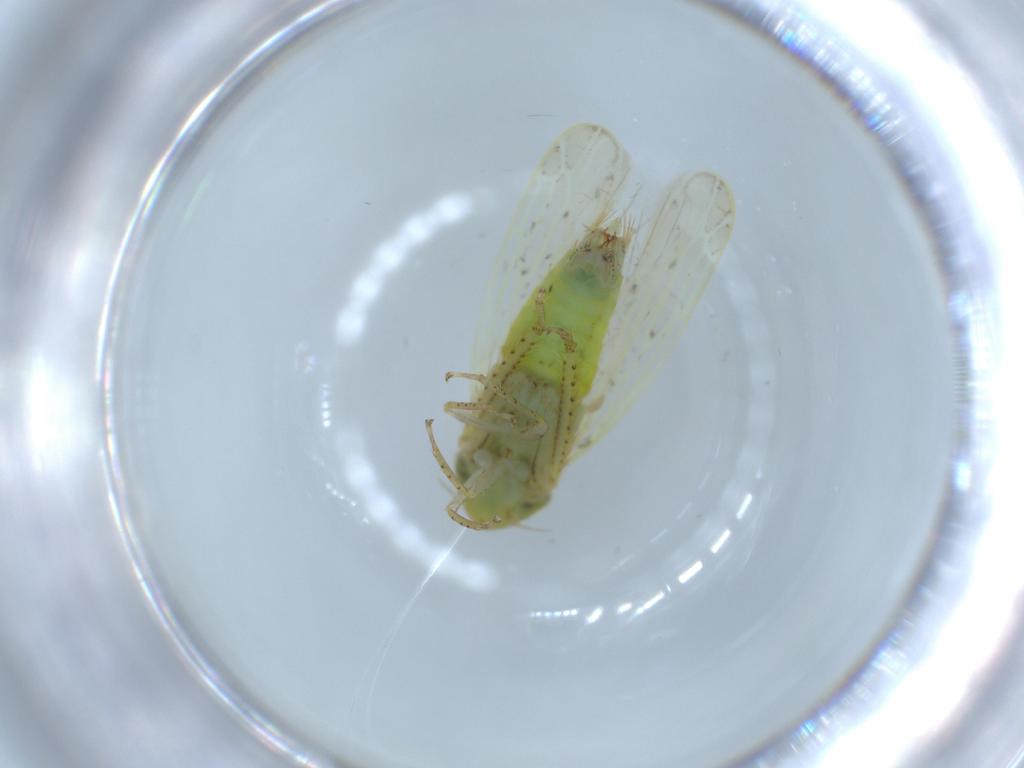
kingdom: Animalia
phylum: Arthropoda
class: Insecta
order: Hemiptera
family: Cicadellidae
